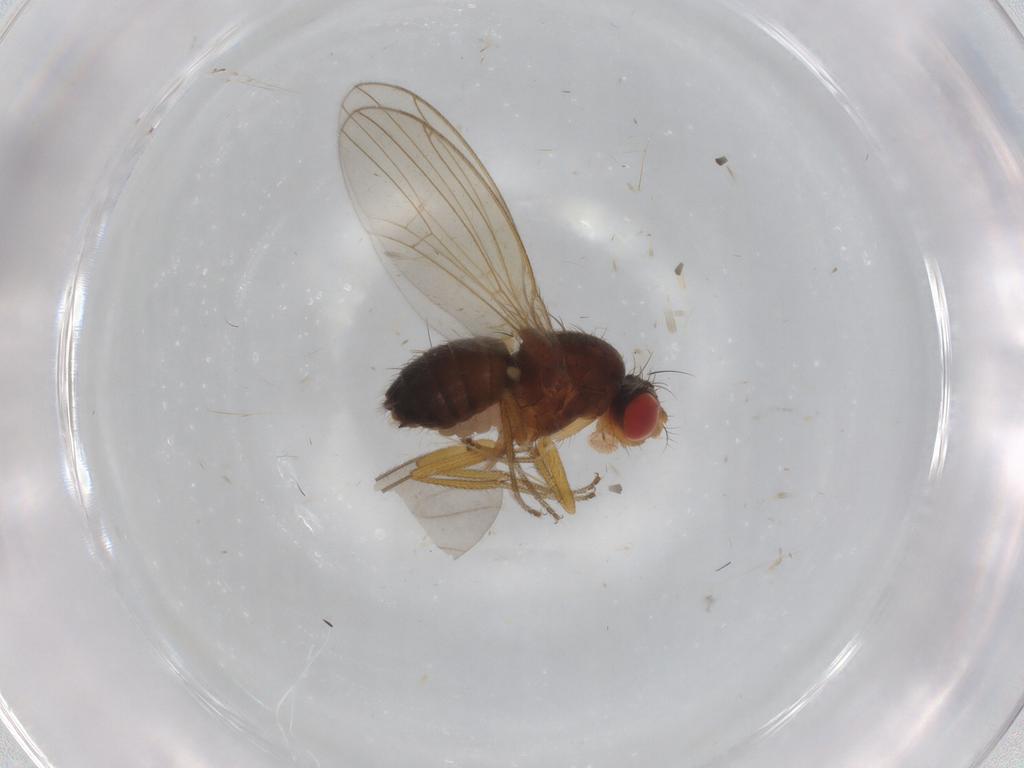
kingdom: Animalia
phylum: Arthropoda
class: Insecta
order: Diptera
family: Drosophilidae
